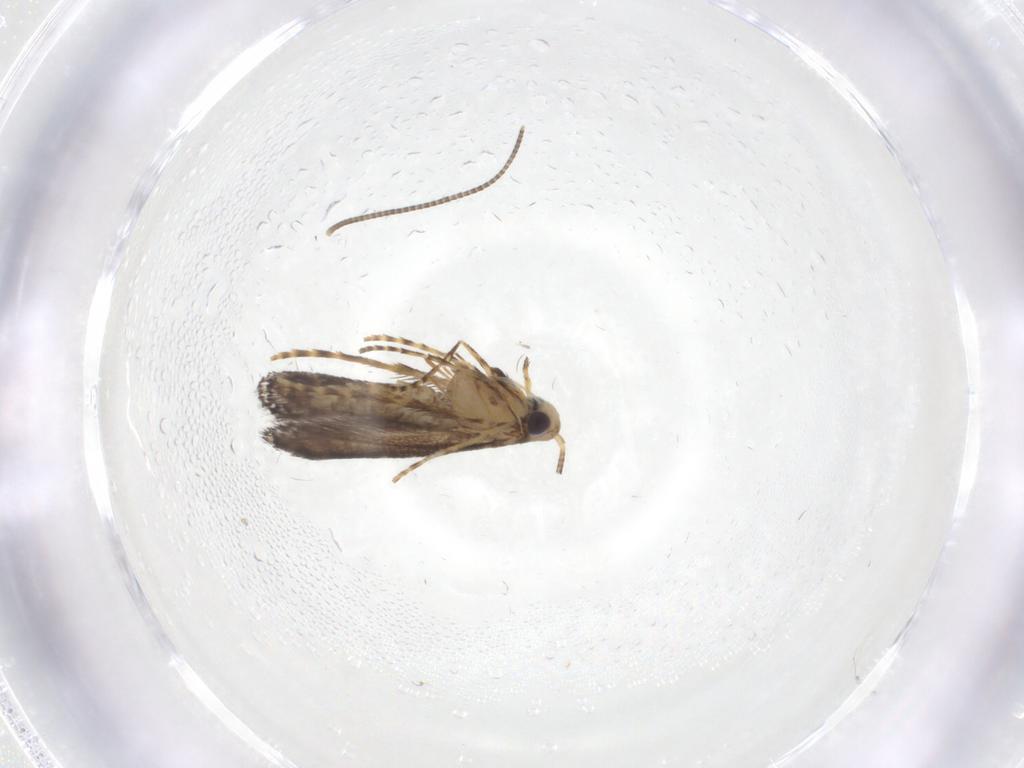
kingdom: Animalia
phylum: Arthropoda
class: Insecta
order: Lepidoptera
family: Gracillariidae
